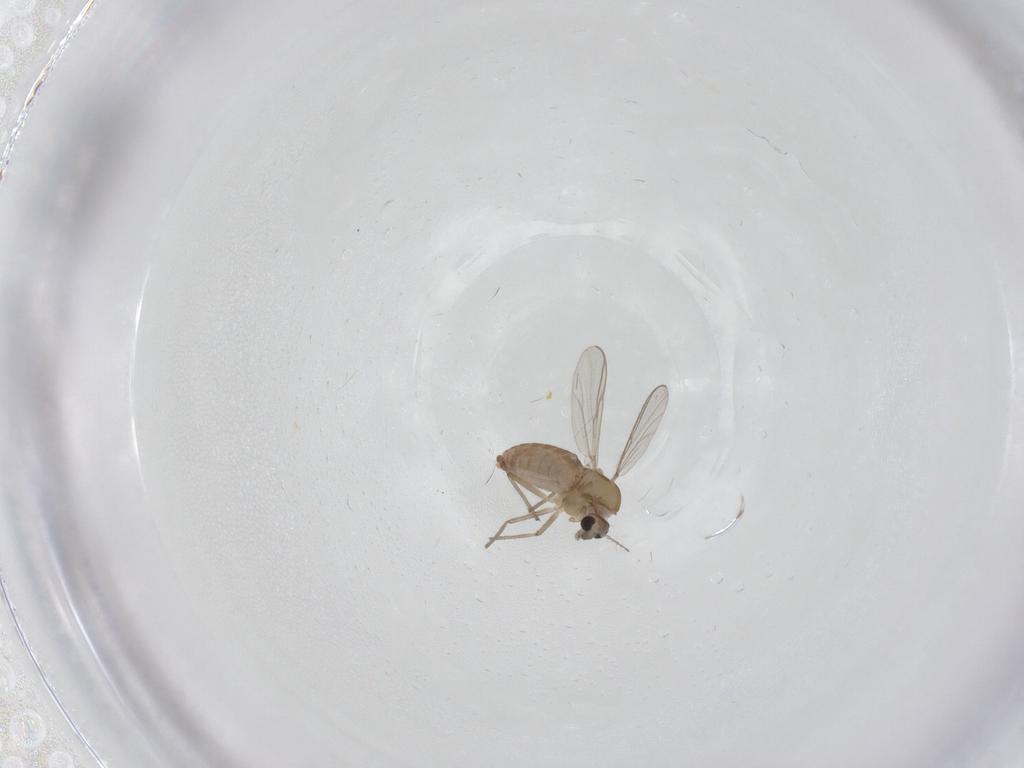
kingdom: Animalia
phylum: Arthropoda
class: Insecta
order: Diptera
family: Chironomidae
